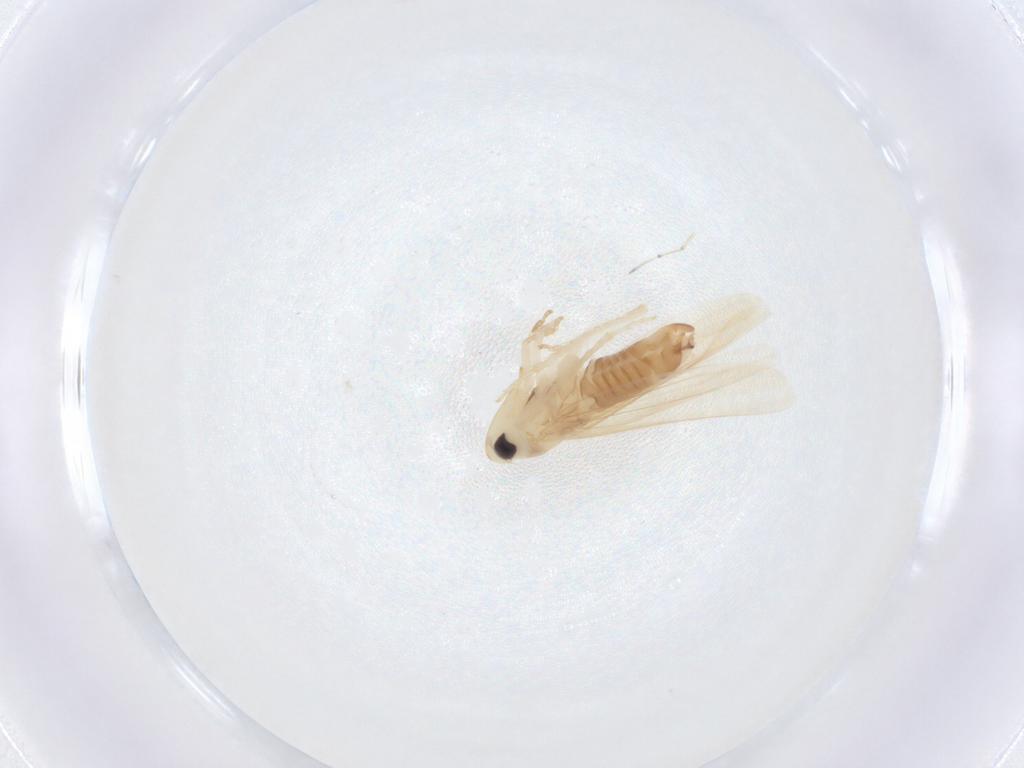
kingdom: Animalia
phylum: Arthropoda
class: Insecta
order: Hemiptera
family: Cicadellidae
